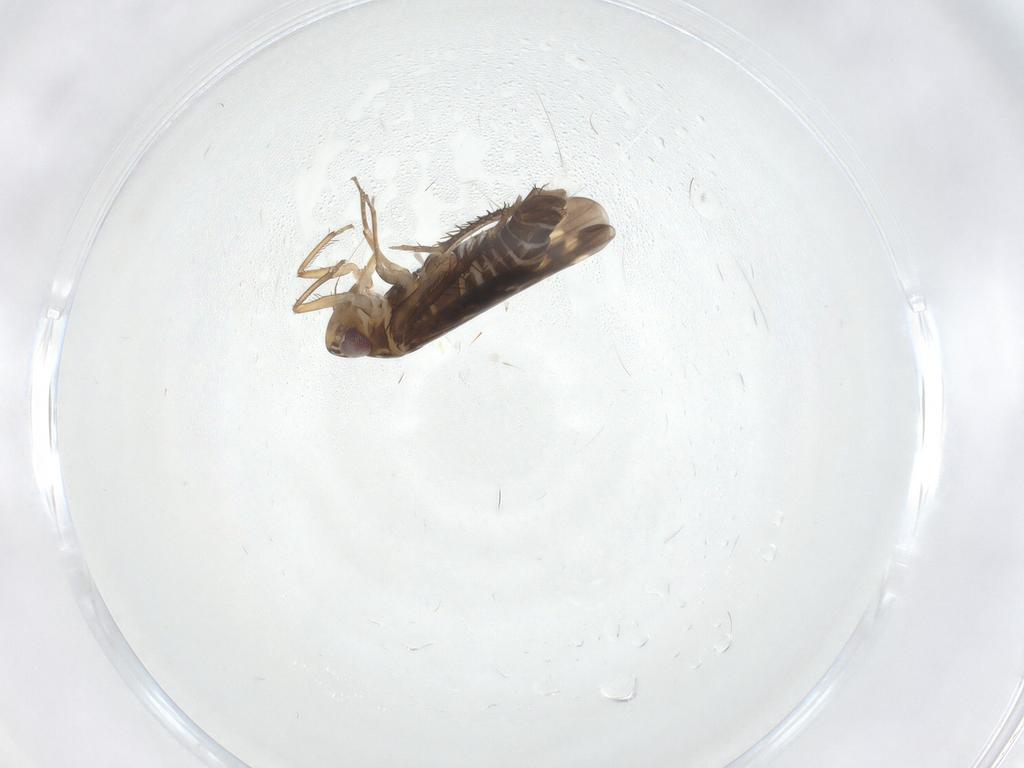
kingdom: Animalia
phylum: Arthropoda
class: Insecta
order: Hemiptera
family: Cicadellidae
